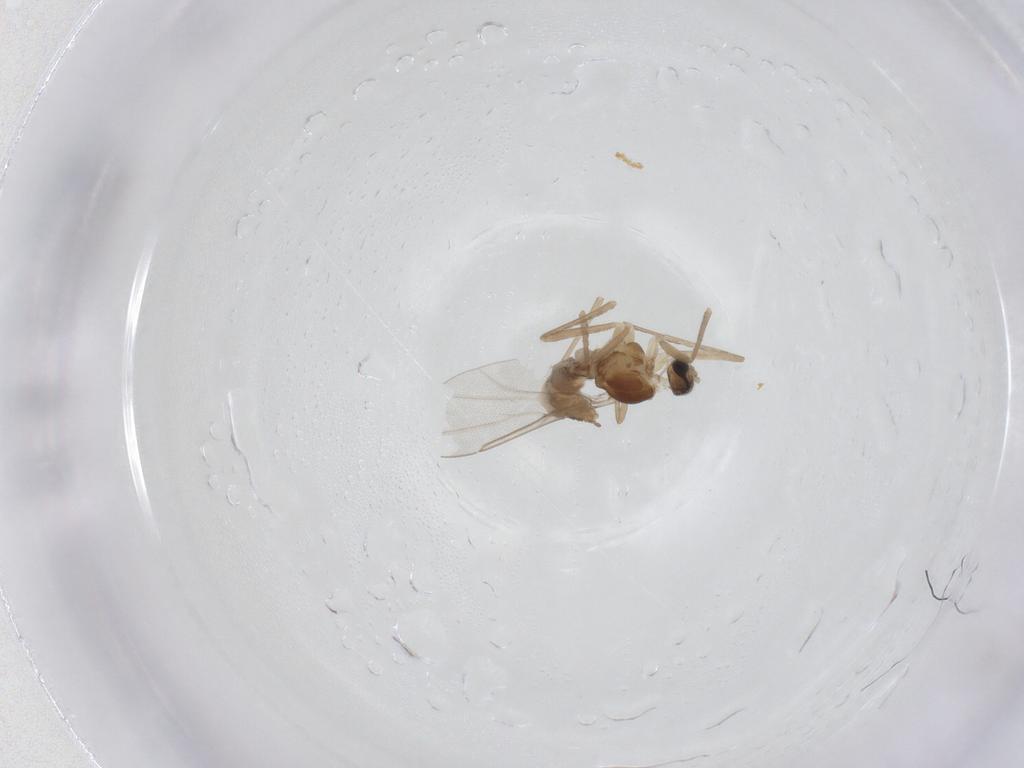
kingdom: Animalia
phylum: Arthropoda
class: Insecta
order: Diptera
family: Cecidomyiidae
